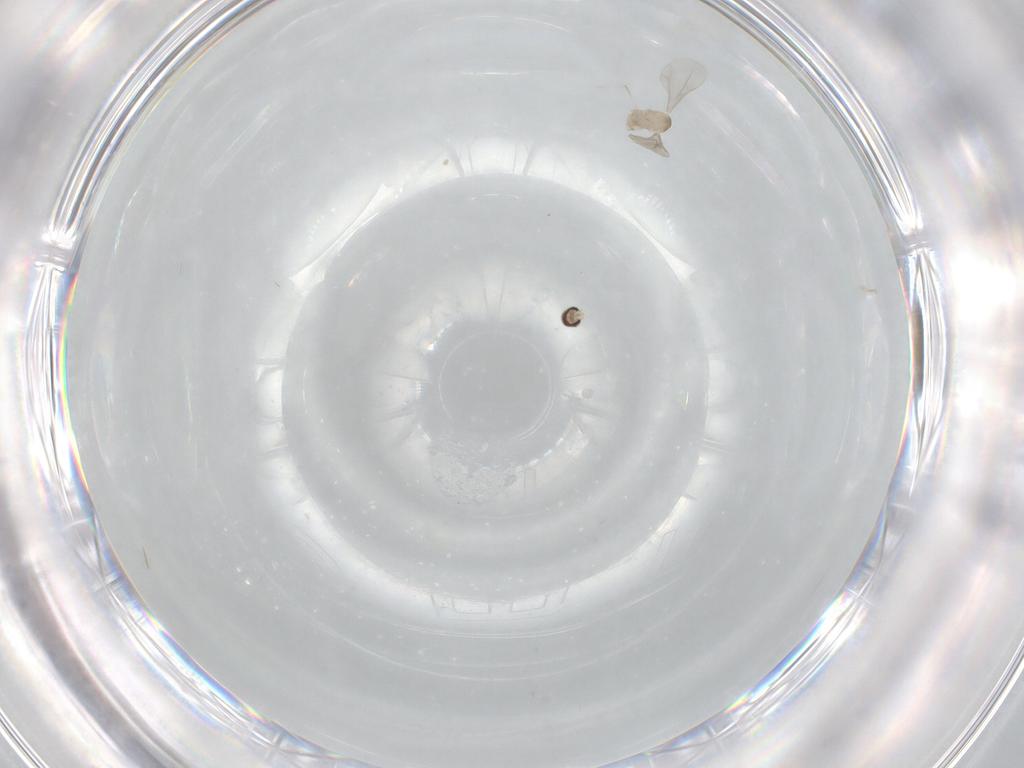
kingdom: Animalia
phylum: Arthropoda
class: Insecta
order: Diptera
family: Cecidomyiidae
